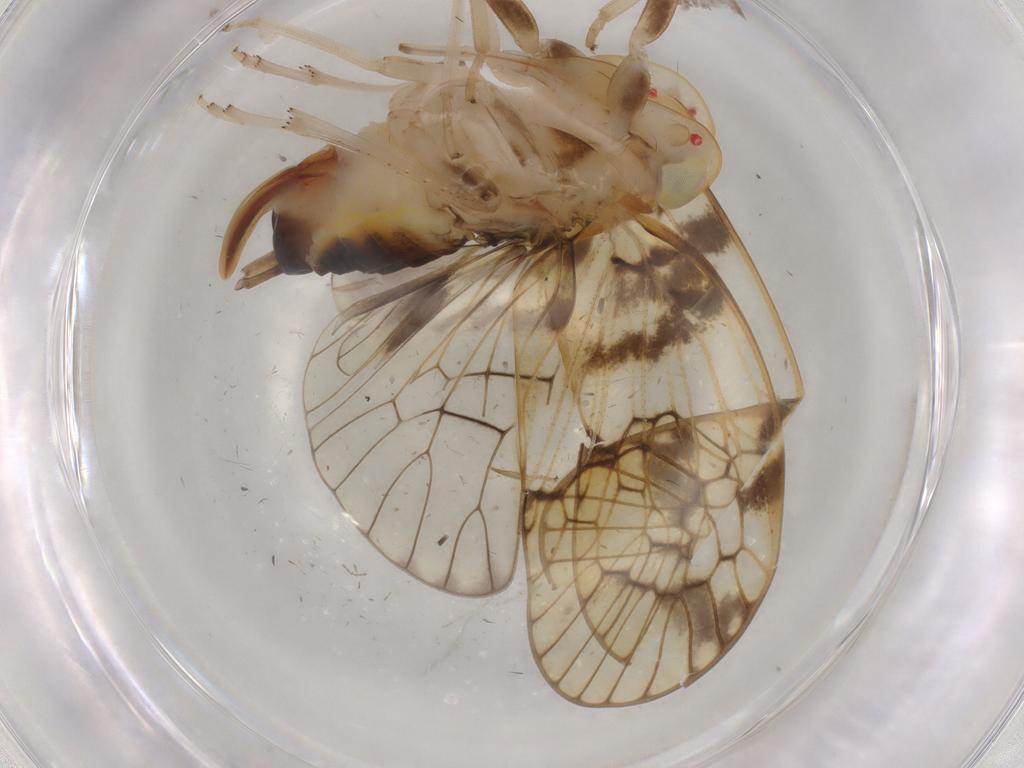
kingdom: Animalia
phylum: Arthropoda
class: Insecta
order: Hemiptera
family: Cixiidae
